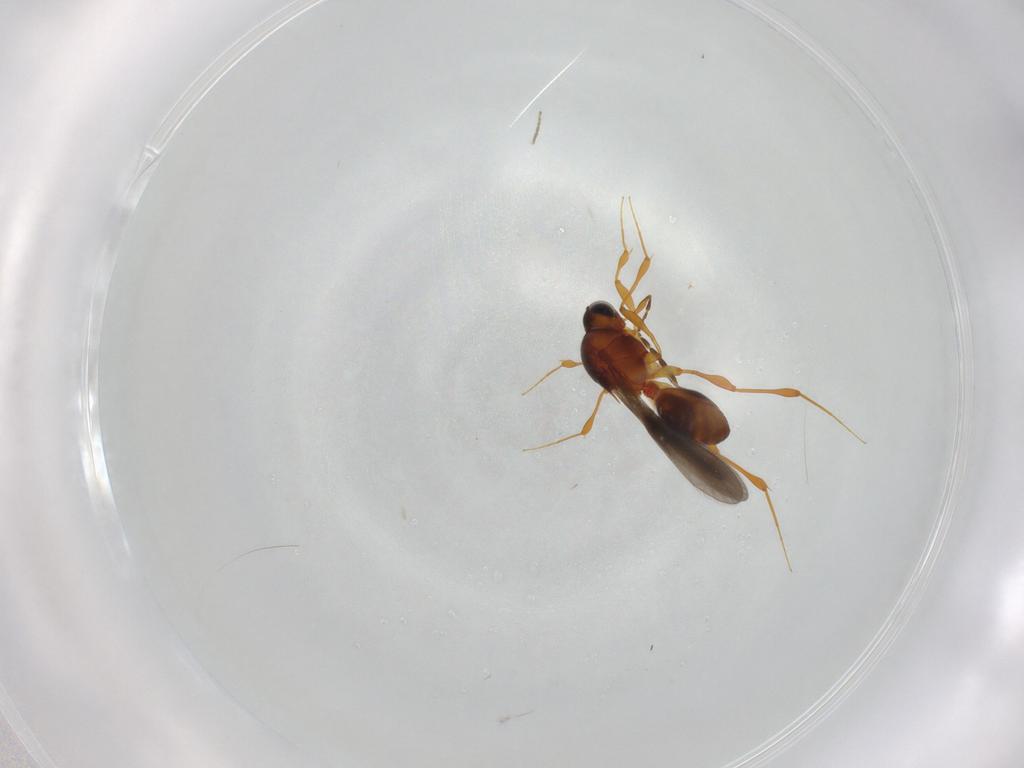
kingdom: Animalia
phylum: Arthropoda
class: Insecta
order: Hymenoptera
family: Platygastridae
